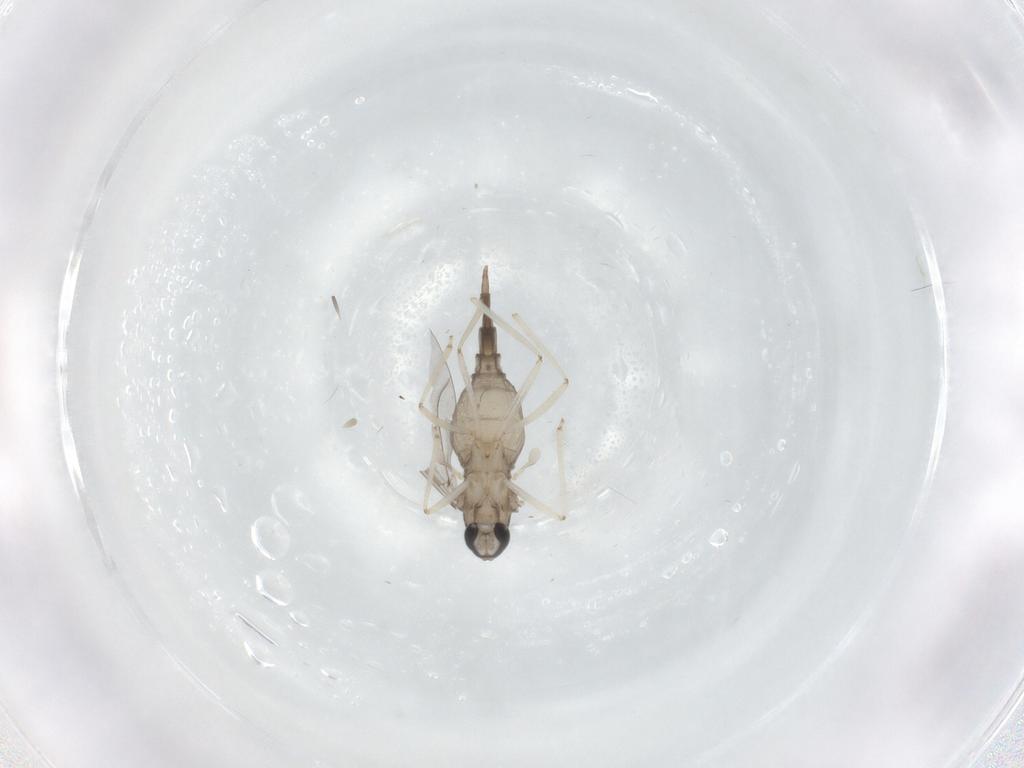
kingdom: Animalia
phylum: Arthropoda
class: Insecta
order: Diptera
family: Cecidomyiidae
